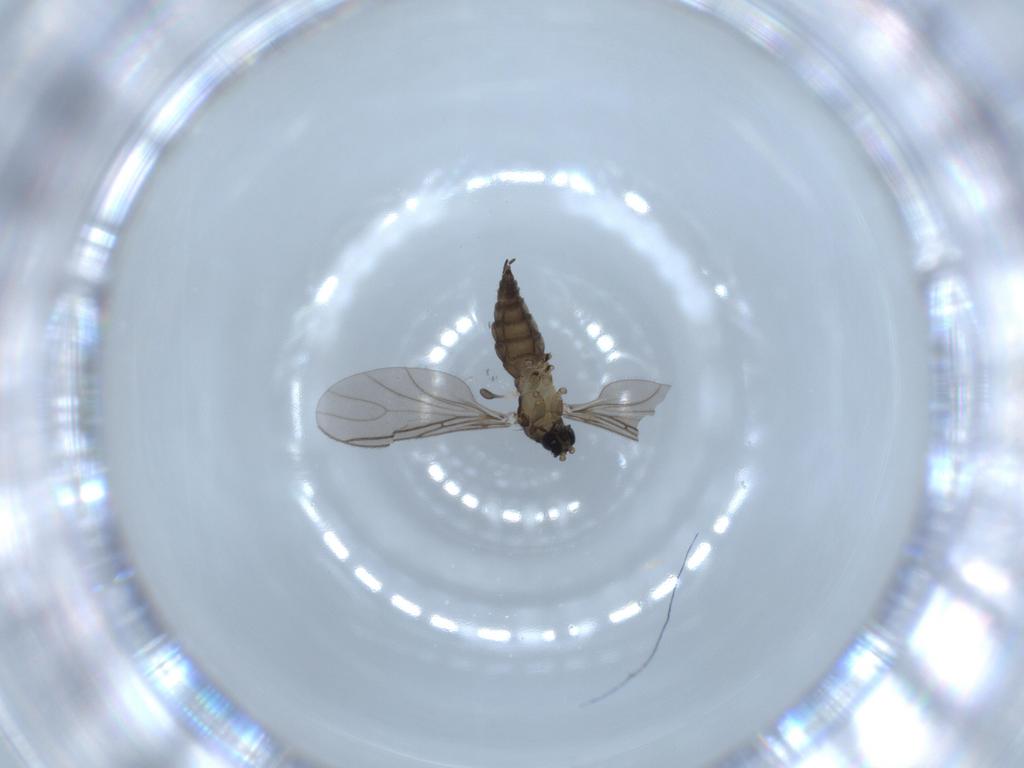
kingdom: Animalia
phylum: Arthropoda
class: Insecta
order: Diptera
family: Sciaridae
